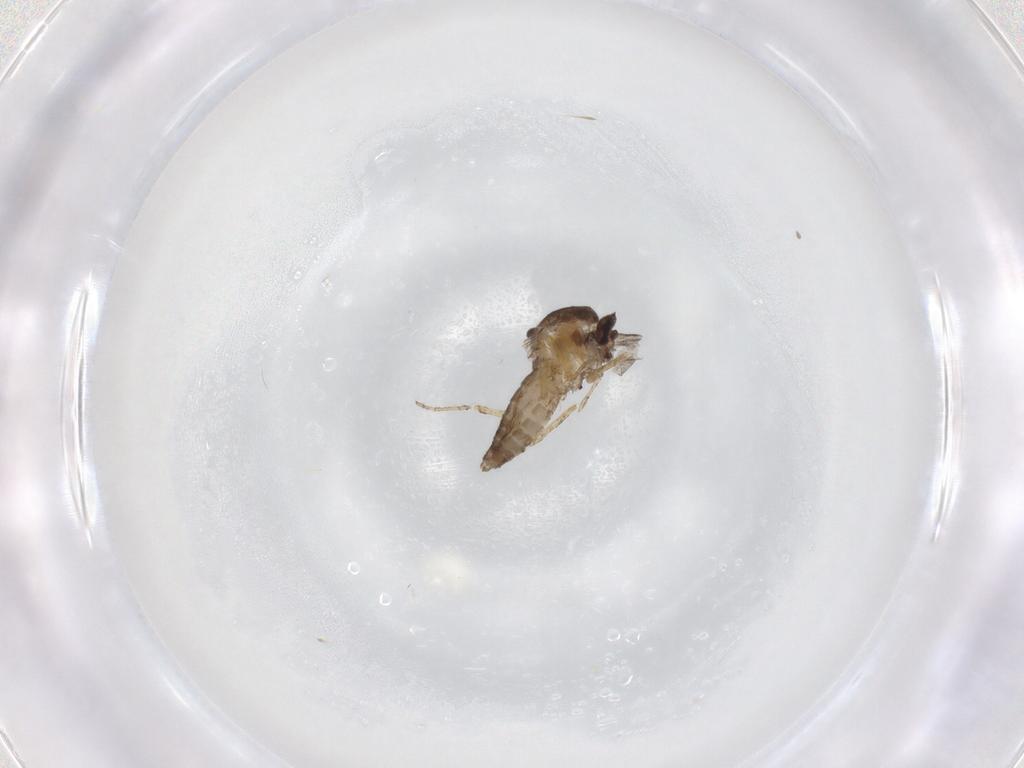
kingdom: Animalia
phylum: Arthropoda
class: Insecta
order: Diptera
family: Ceratopogonidae
